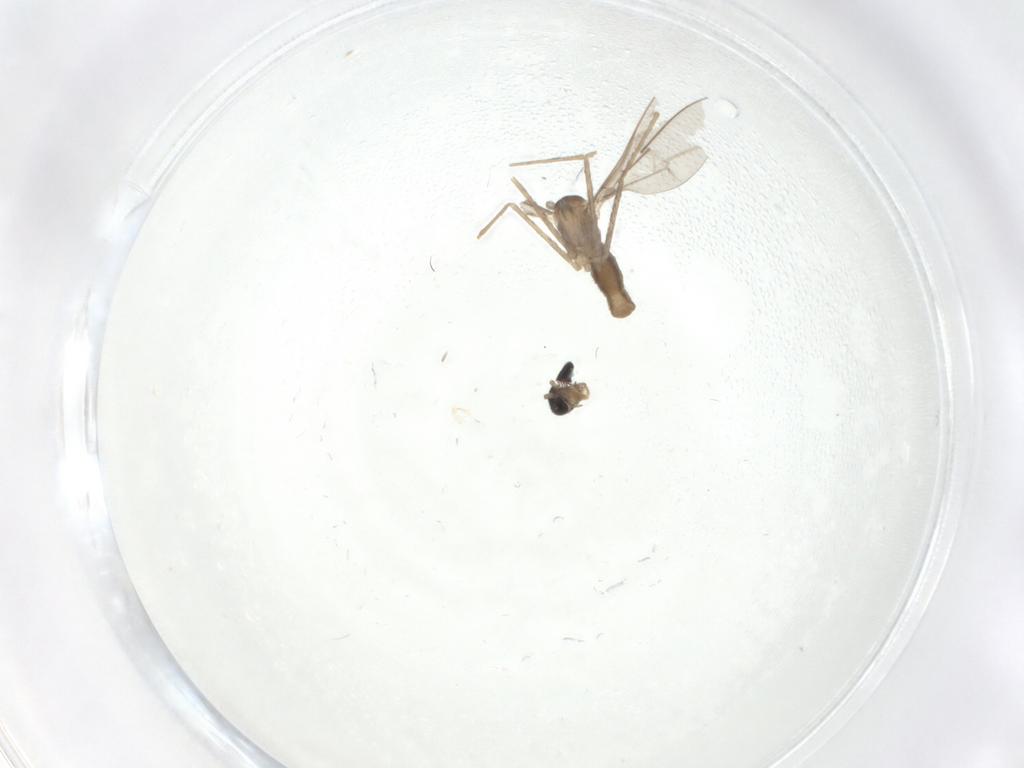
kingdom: Animalia
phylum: Arthropoda
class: Insecta
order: Diptera
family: Cecidomyiidae
